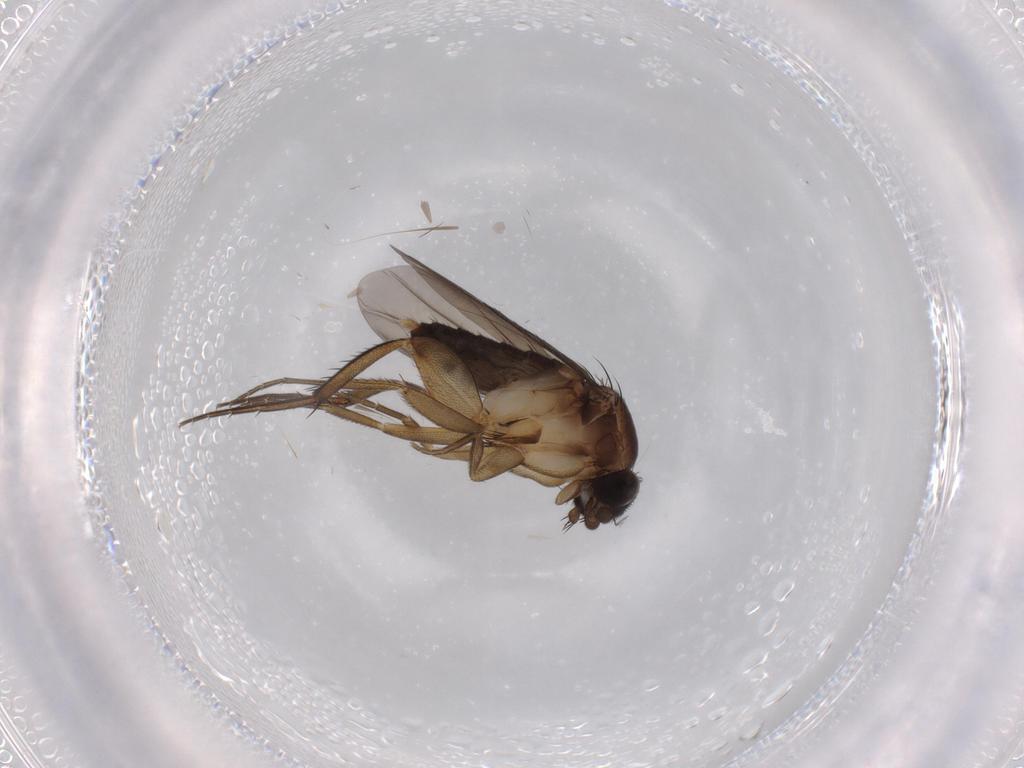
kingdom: Animalia
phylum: Arthropoda
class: Insecta
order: Diptera
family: Phoridae
